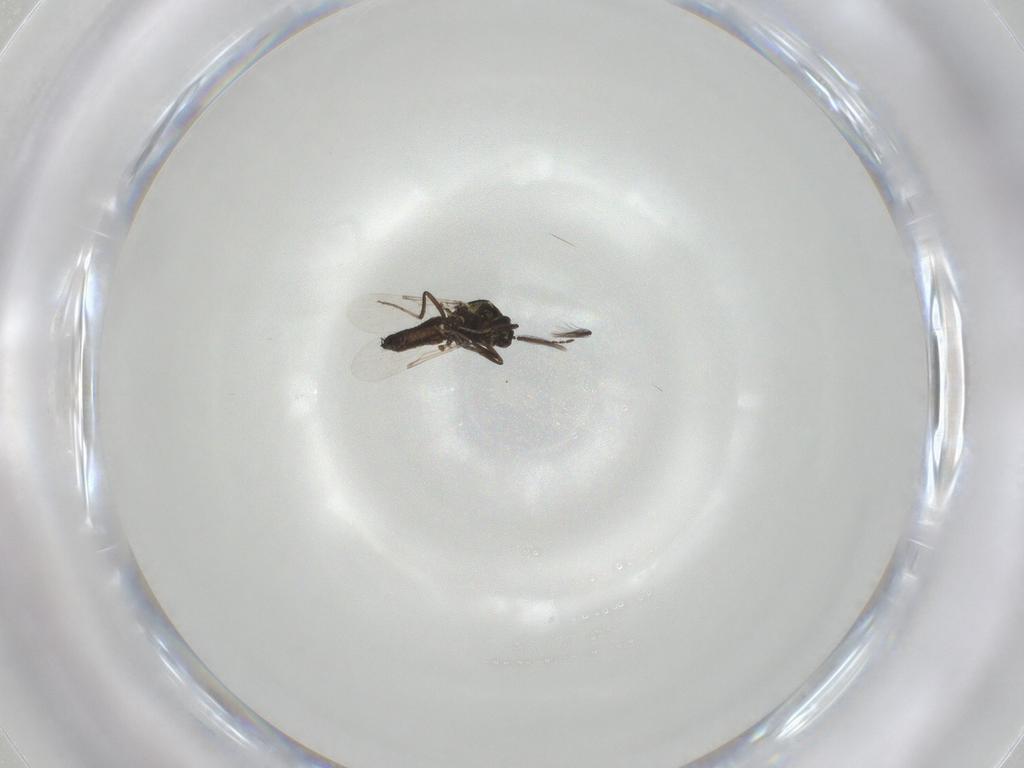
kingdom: Animalia
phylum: Arthropoda
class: Insecta
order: Diptera
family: Ceratopogonidae
